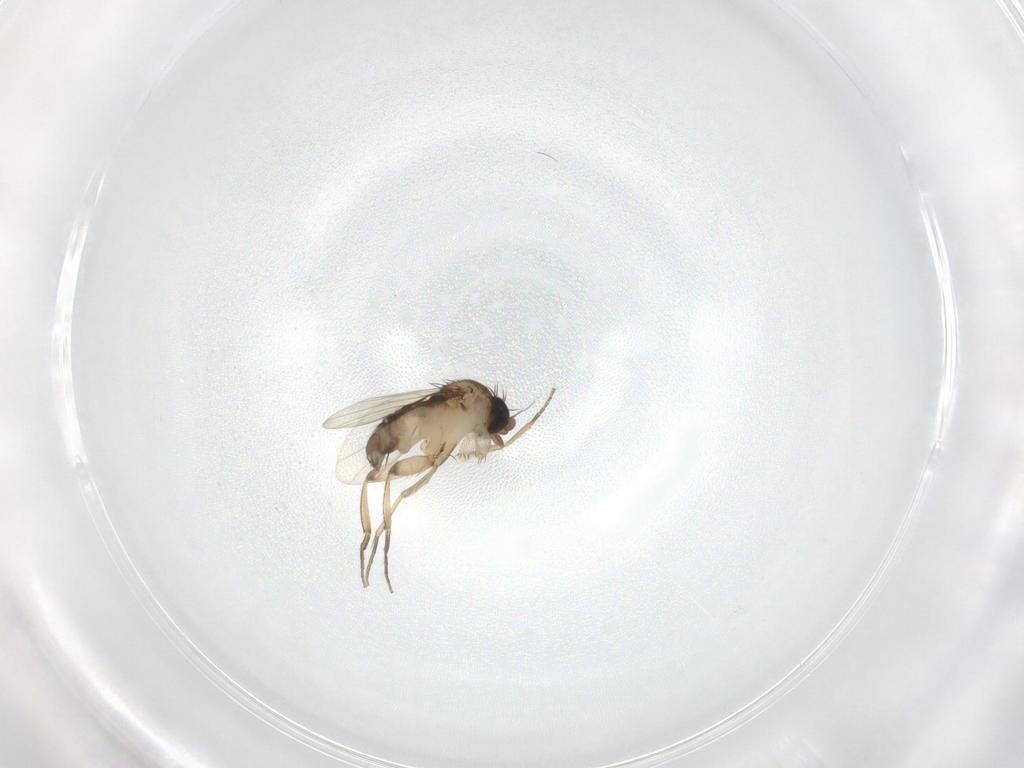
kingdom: Animalia
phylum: Arthropoda
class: Insecta
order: Diptera
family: Phoridae
